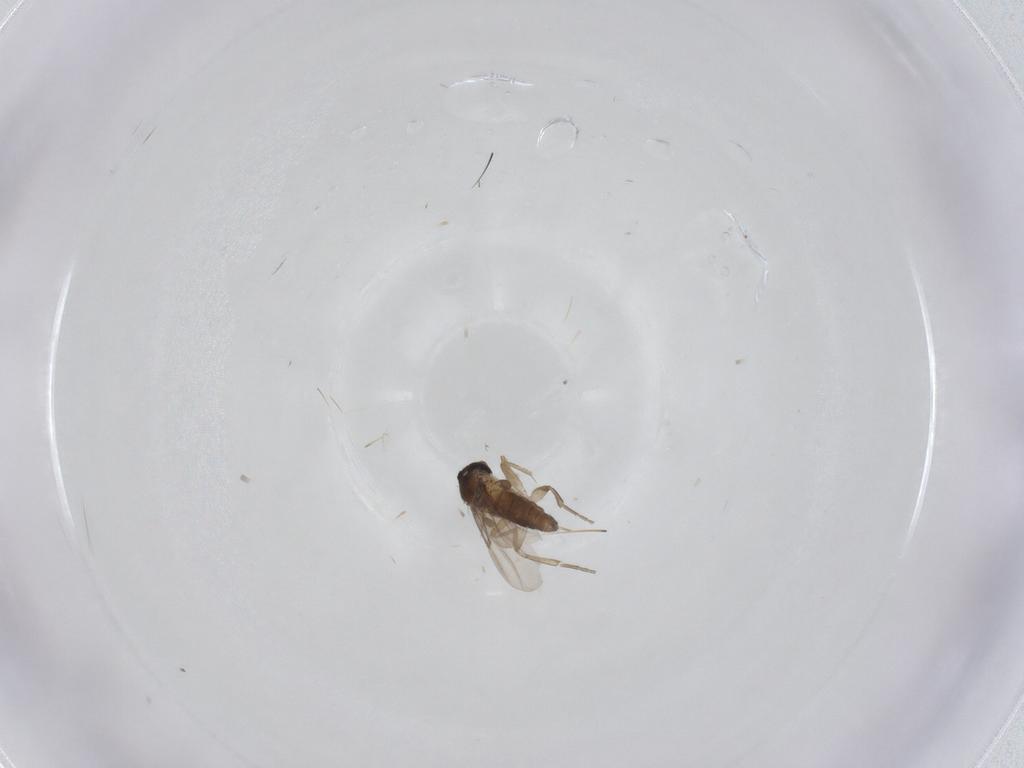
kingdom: Animalia
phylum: Arthropoda
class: Insecta
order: Diptera
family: Phoridae
